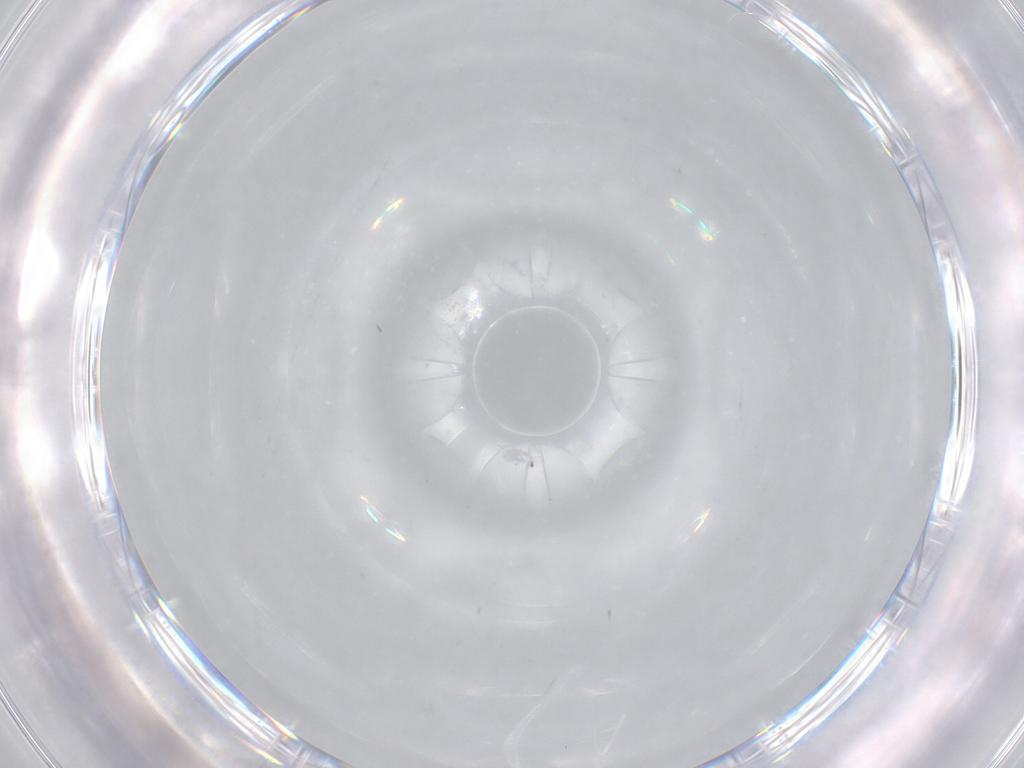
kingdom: Animalia
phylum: Arthropoda
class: Insecta
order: Diptera
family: Cecidomyiidae
